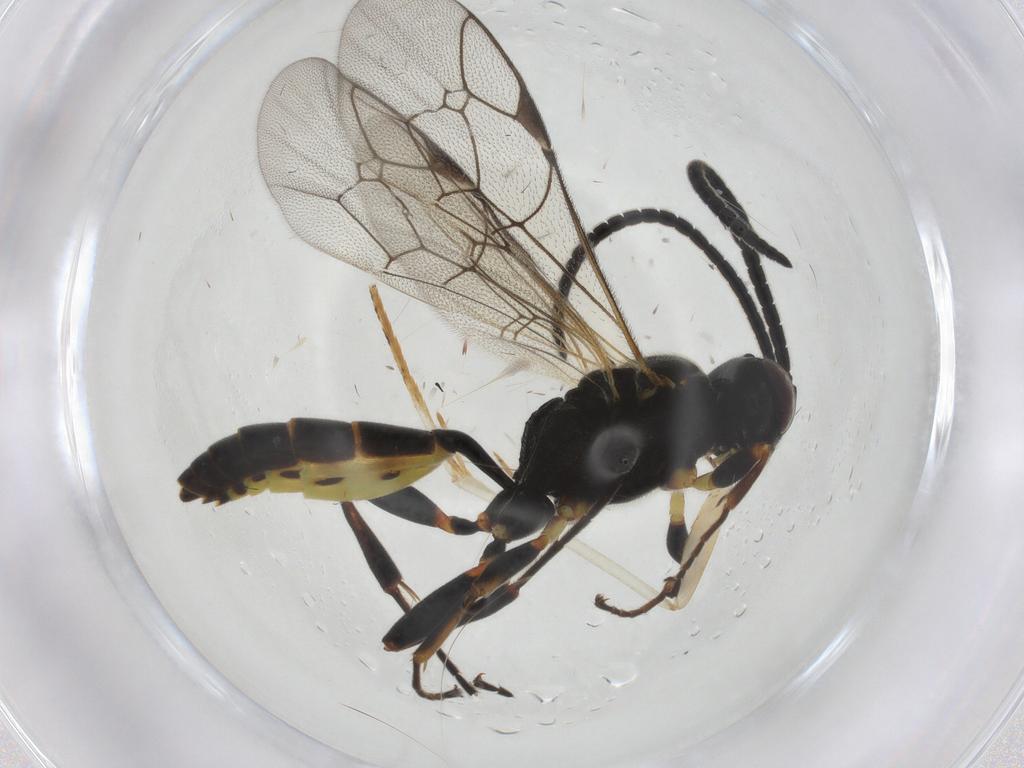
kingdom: Animalia
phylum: Arthropoda
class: Insecta
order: Hymenoptera
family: Ichneumonidae
